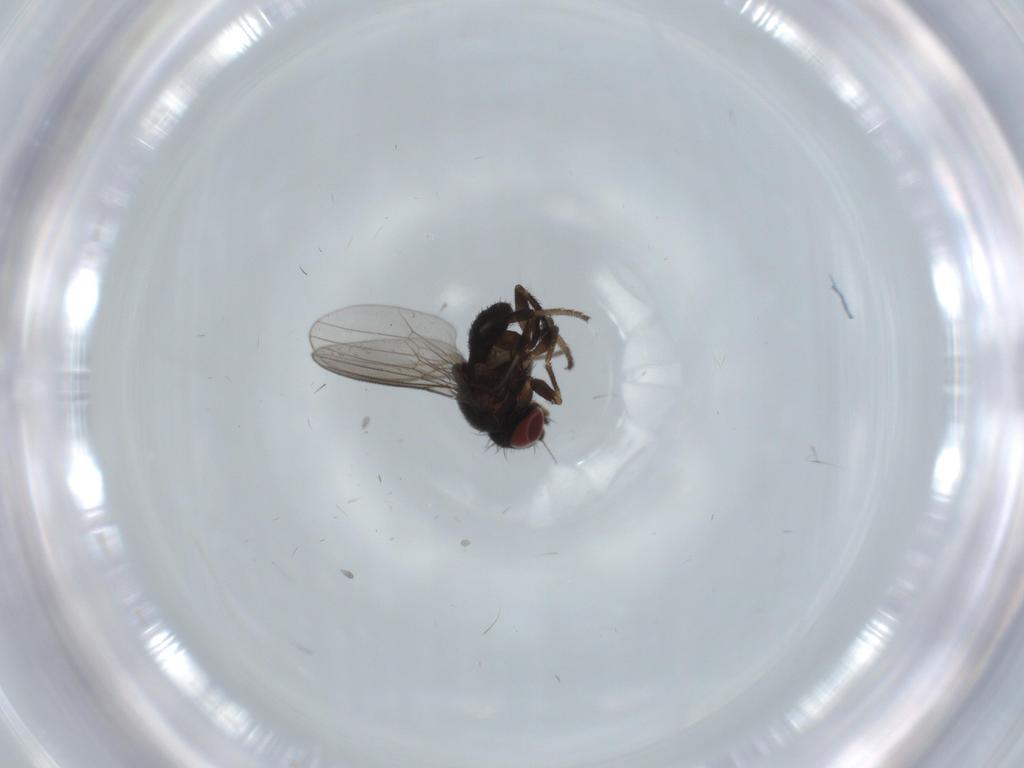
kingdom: Animalia
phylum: Arthropoda
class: Insecta
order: Diptera
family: Milichiidae
